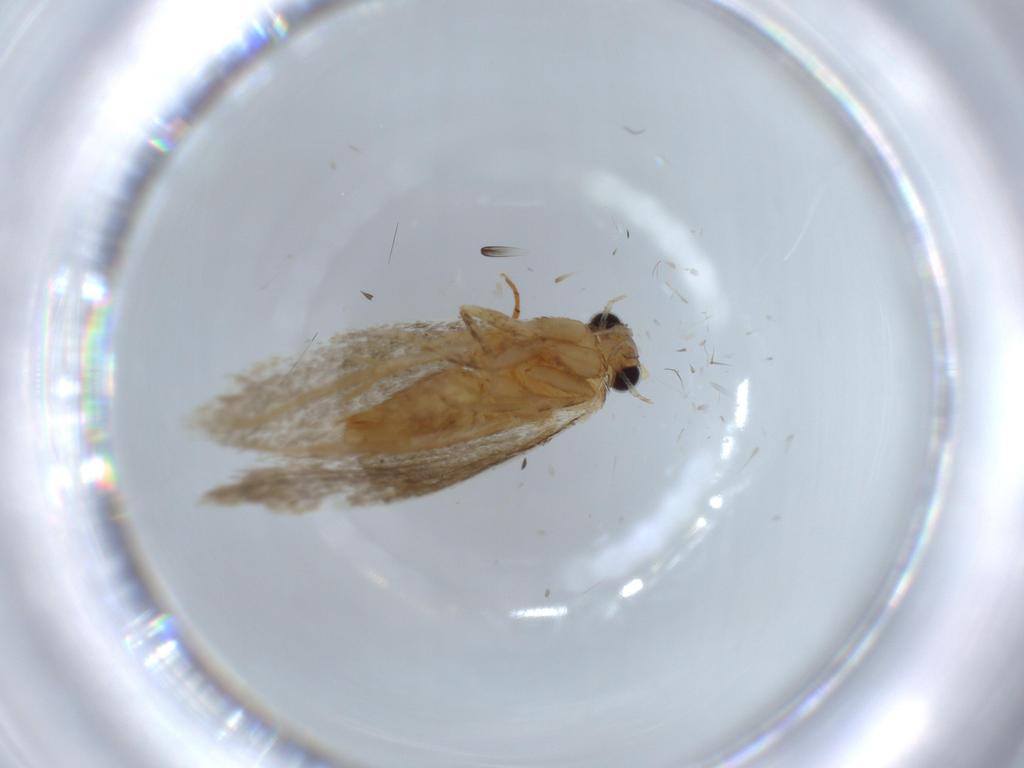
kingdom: Animalia
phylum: Arthropoda
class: Insecta
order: Lepidoptera
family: Tineidae
